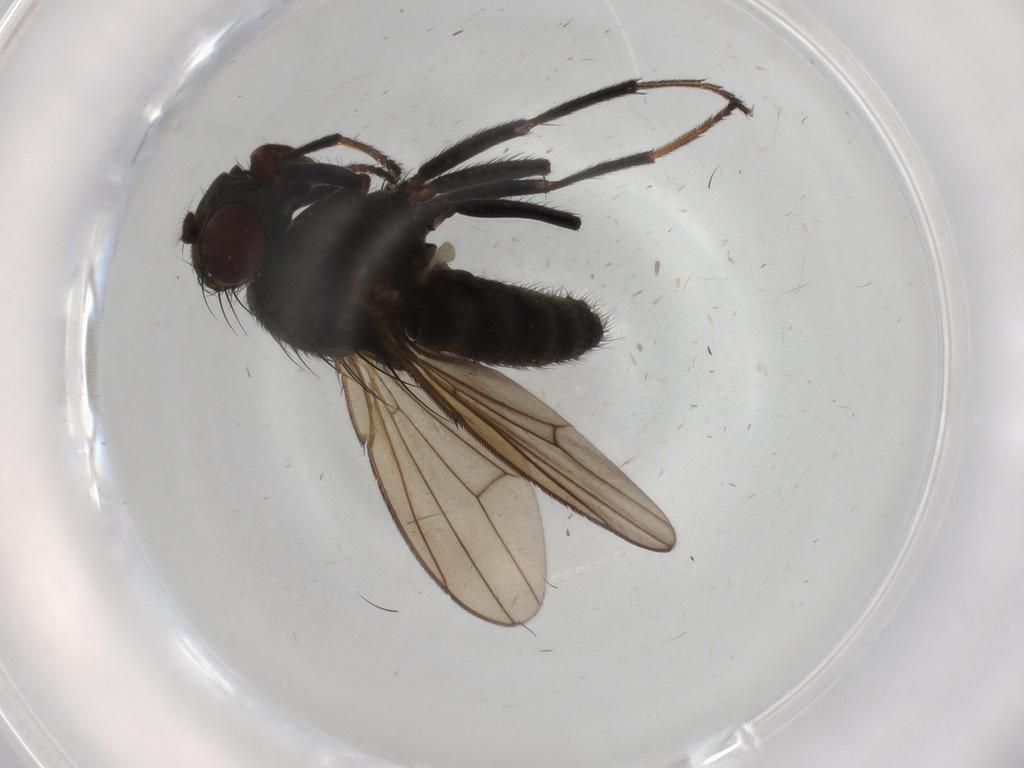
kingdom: Animalia
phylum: Arthropoda
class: Insecta
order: Diptera
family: Ephydridae
